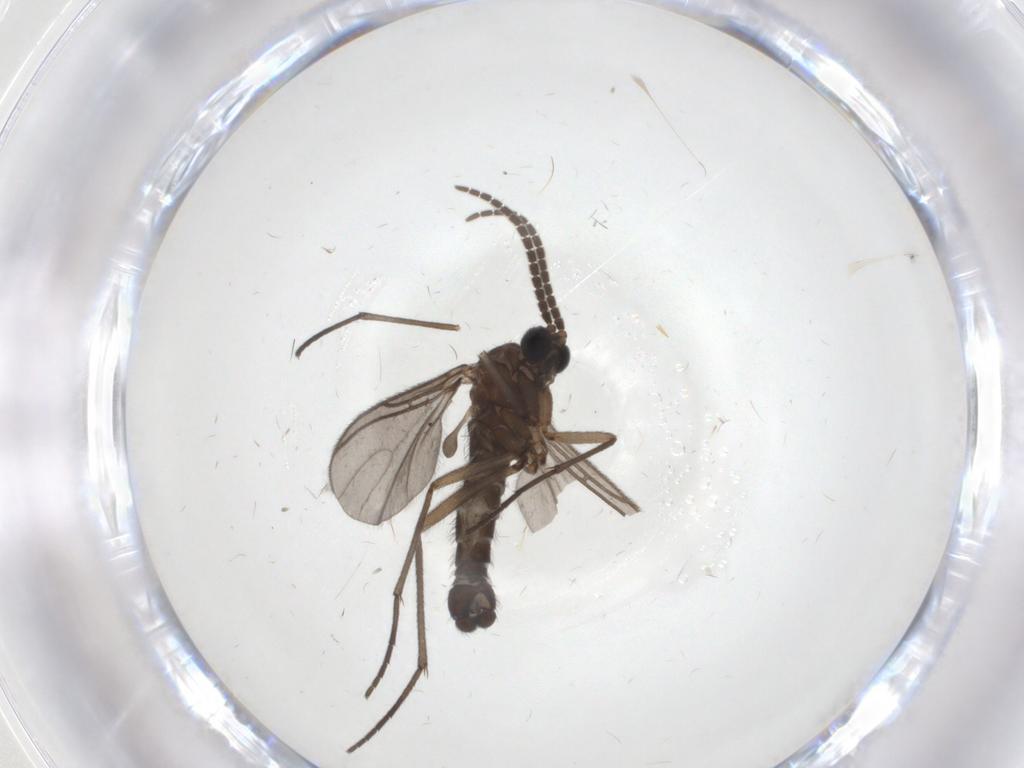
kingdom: Animalia
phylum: Arthropoda
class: Insecta
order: Diptera
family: Sciaridae
